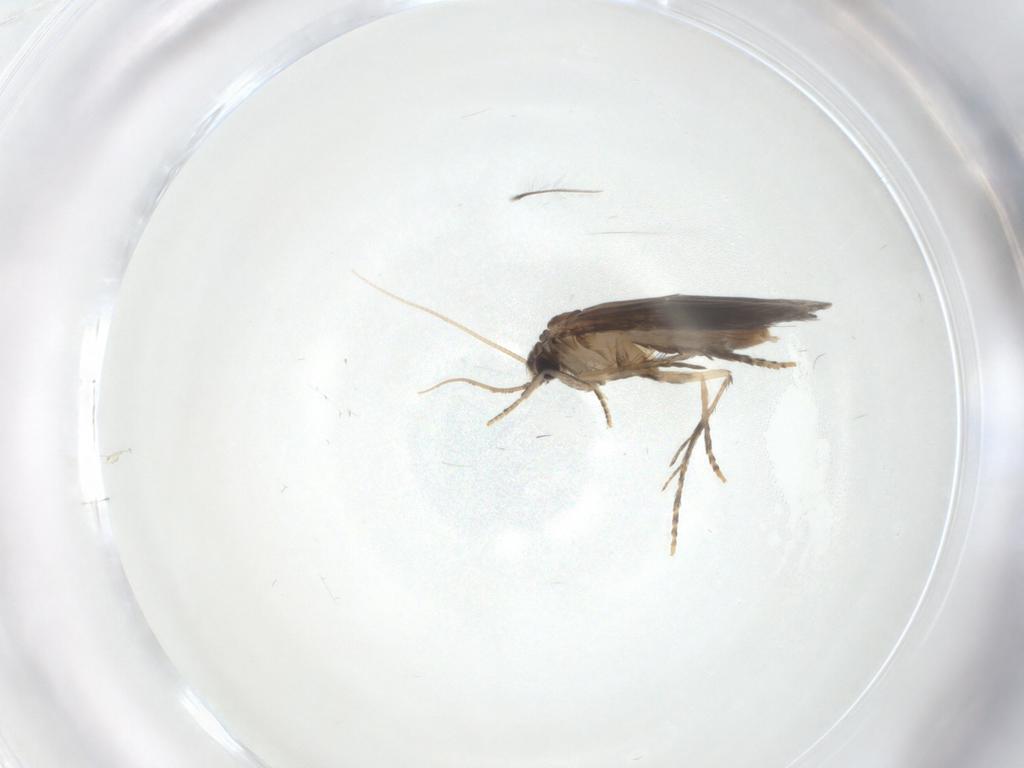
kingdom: Animalia
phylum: Arthropoda
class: Insecta
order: Trichoptera
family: Hydroptilidae
